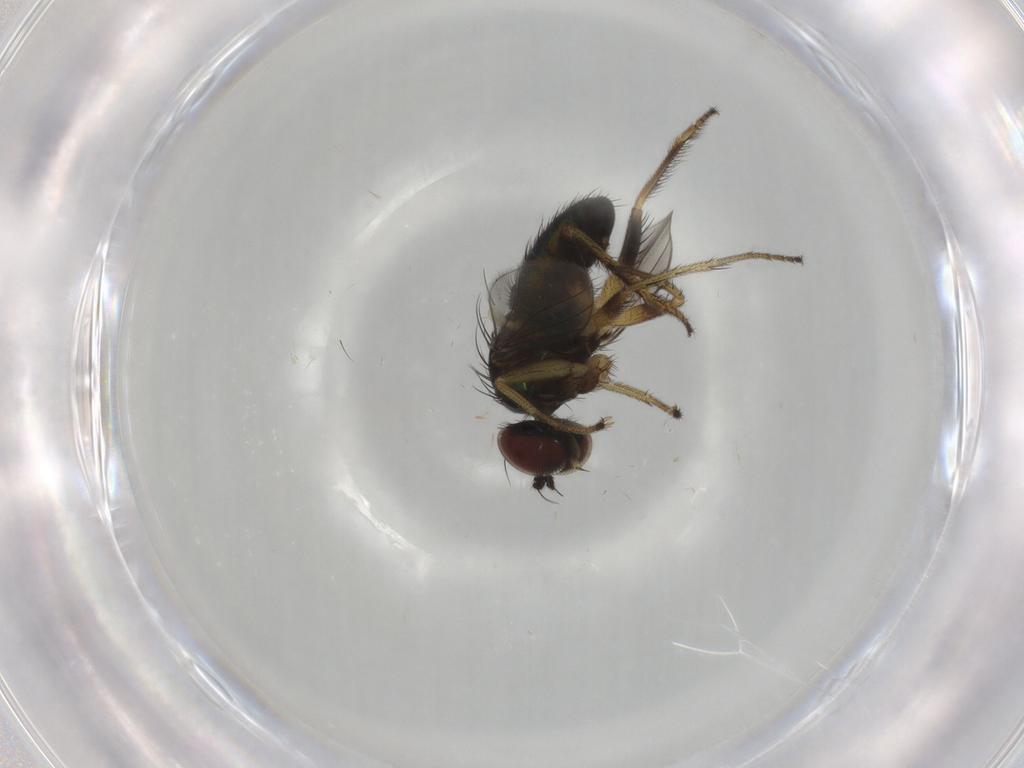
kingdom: Animalia
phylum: Arthropoda
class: Insecta
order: Diptera
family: Dolichopodidae
